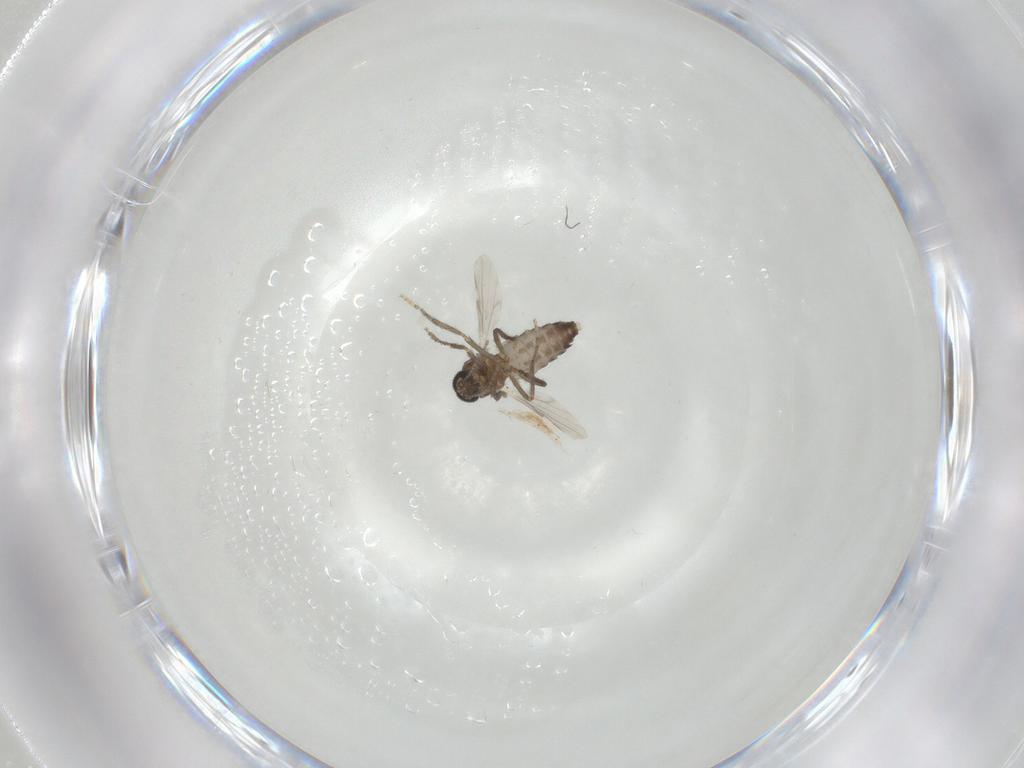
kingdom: Animalia
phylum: Arthropoda
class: Insecta
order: Diptera
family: Ceratopogonidae
